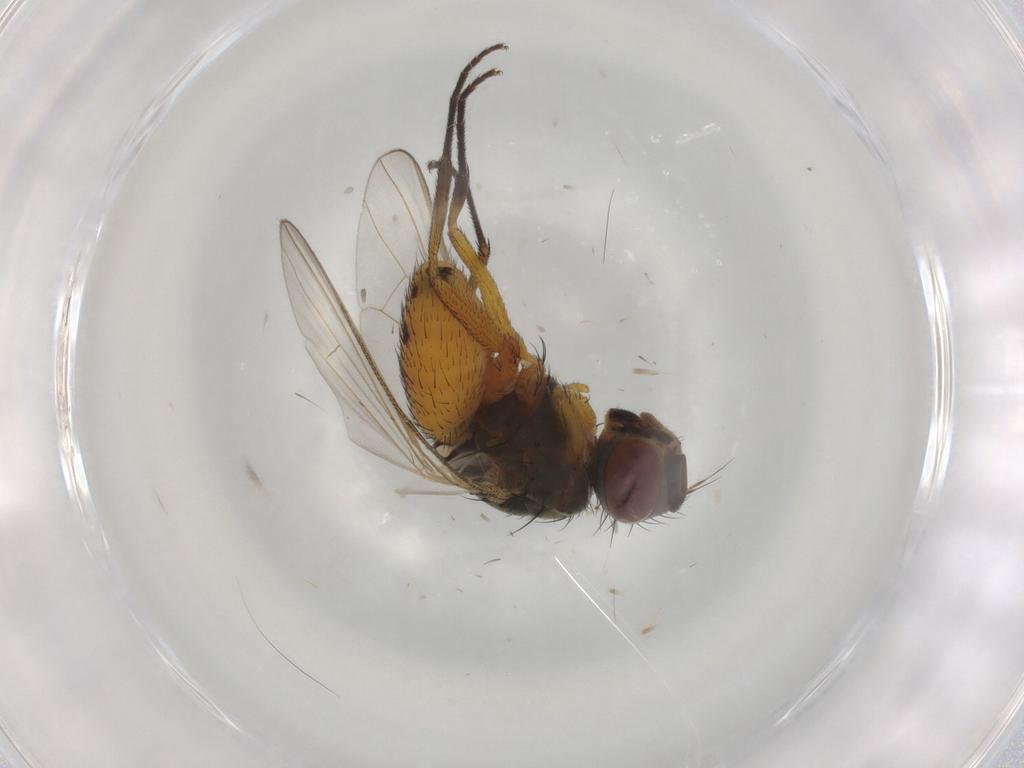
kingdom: Animalia
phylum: Arthropoda
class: Insecta
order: Diptera
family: Muscidae
